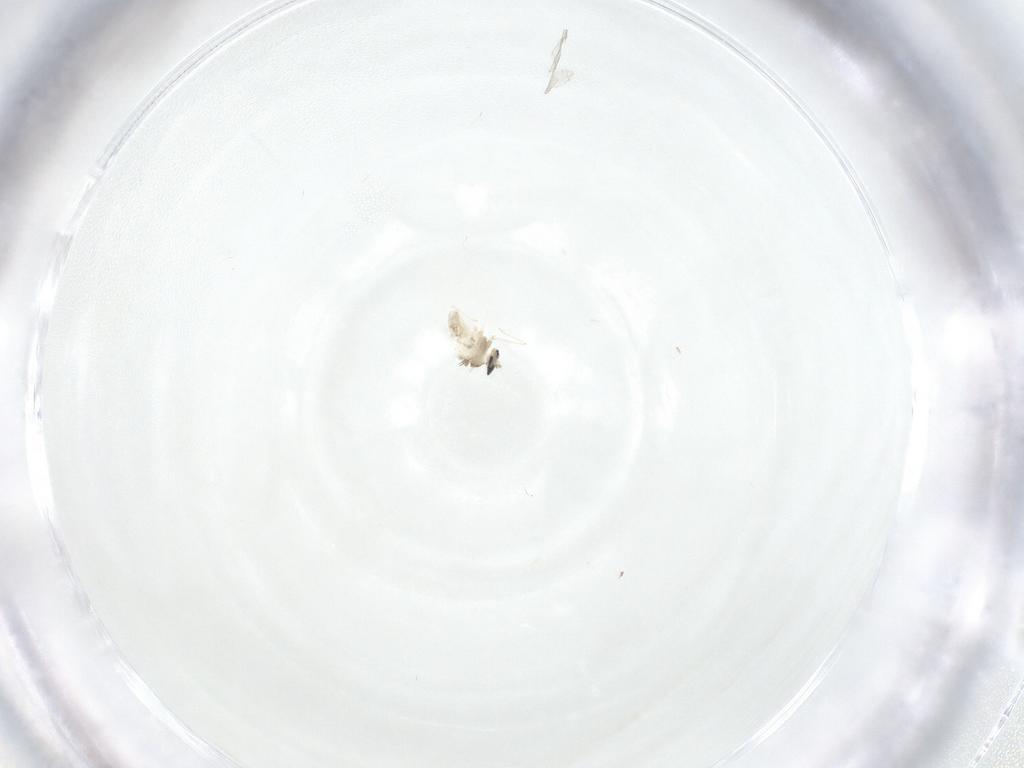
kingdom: Animalia
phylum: Arthropoda
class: Insecta
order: Diptera
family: Cecidomyiidae
